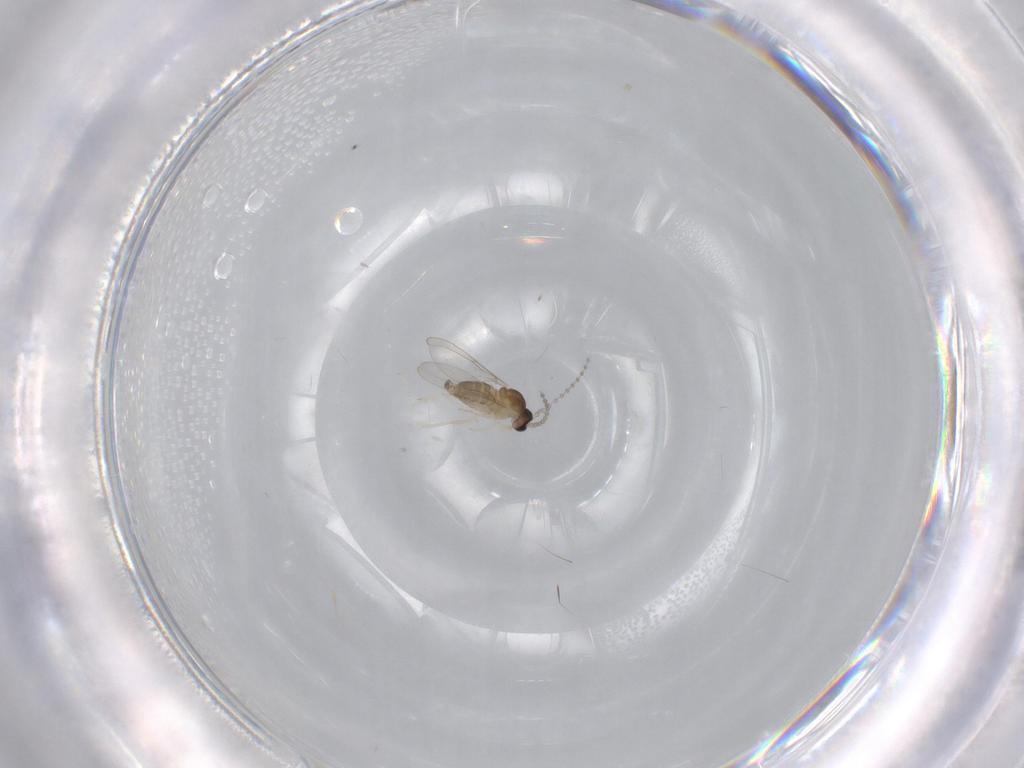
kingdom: Animalia
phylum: Arthropoda
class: Insecta
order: Diptera
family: Cecidomyiidae
